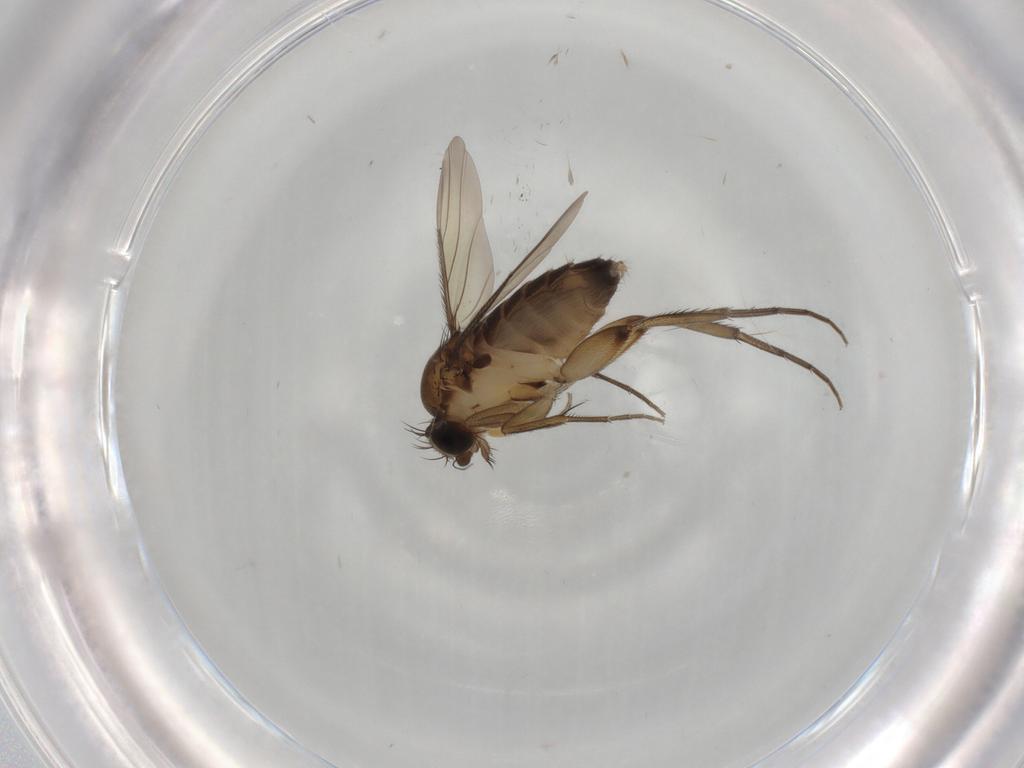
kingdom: Animalia
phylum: Arthropoda
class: Insecta
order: Diptera
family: Phoridae
